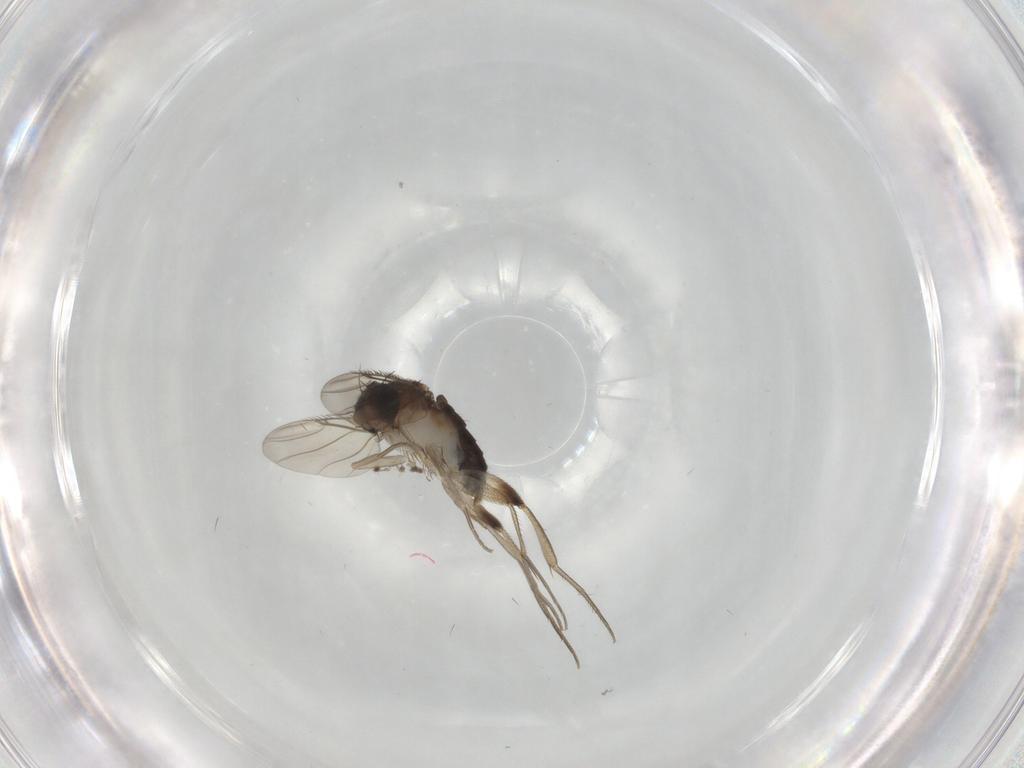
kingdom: Animalia
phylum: Arthropoda
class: Insecta
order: Diptera
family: Phoridae
